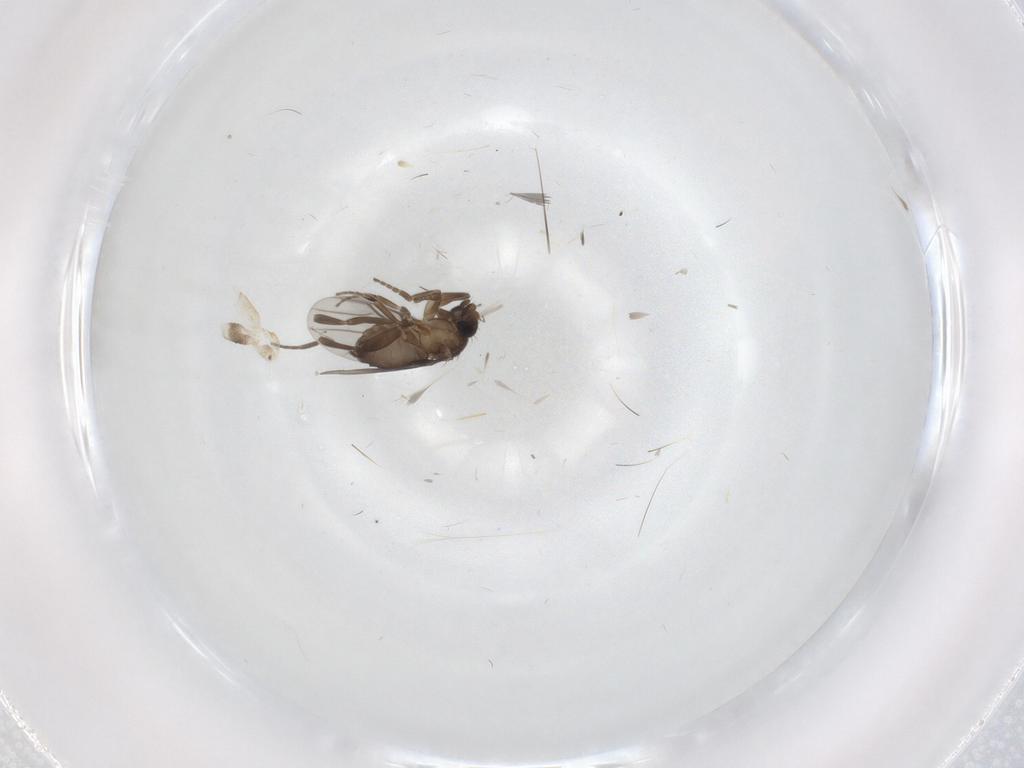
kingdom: Animalia
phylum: Arthropoda
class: Insecta
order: Diptera
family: Phoridae
